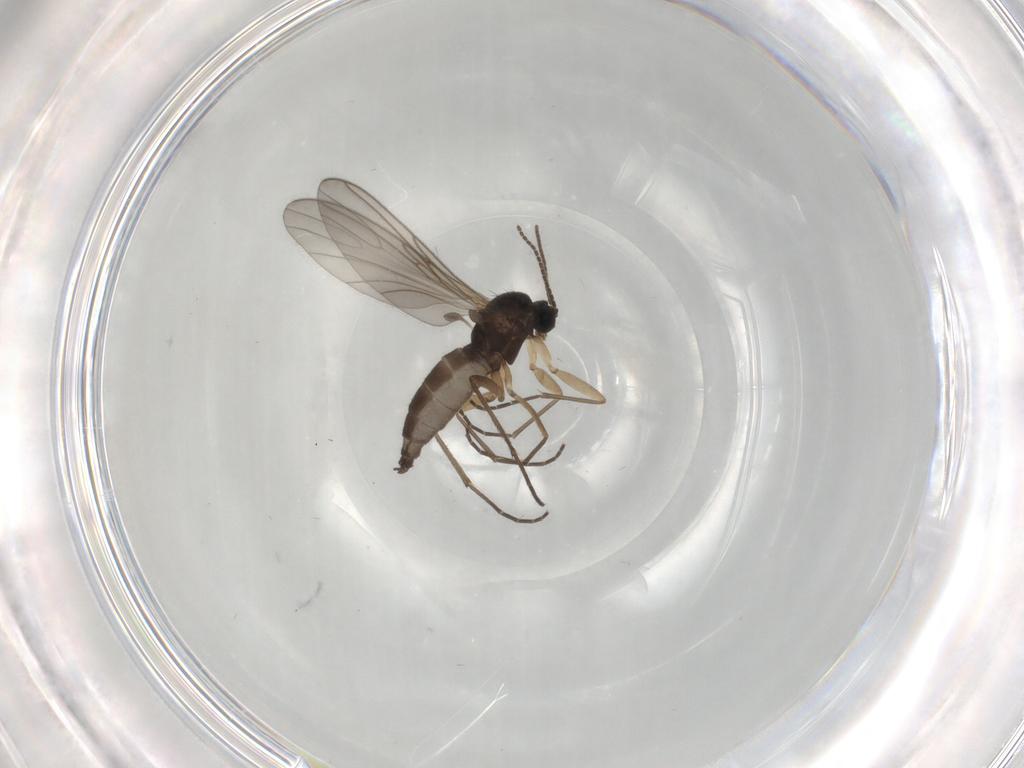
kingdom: Animalia
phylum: Arthropoda
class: Insecta
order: Diptera
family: Sciaridae
